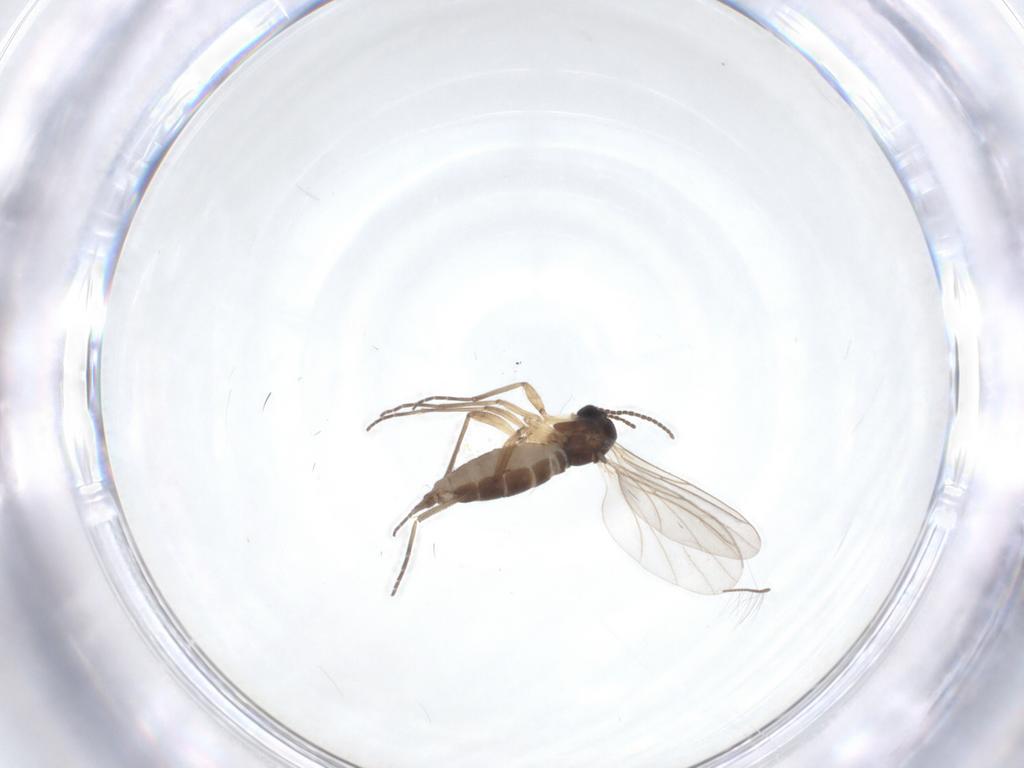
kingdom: Animalia
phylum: Arthropoda
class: Insecta
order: Diptera
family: Sciaridae
